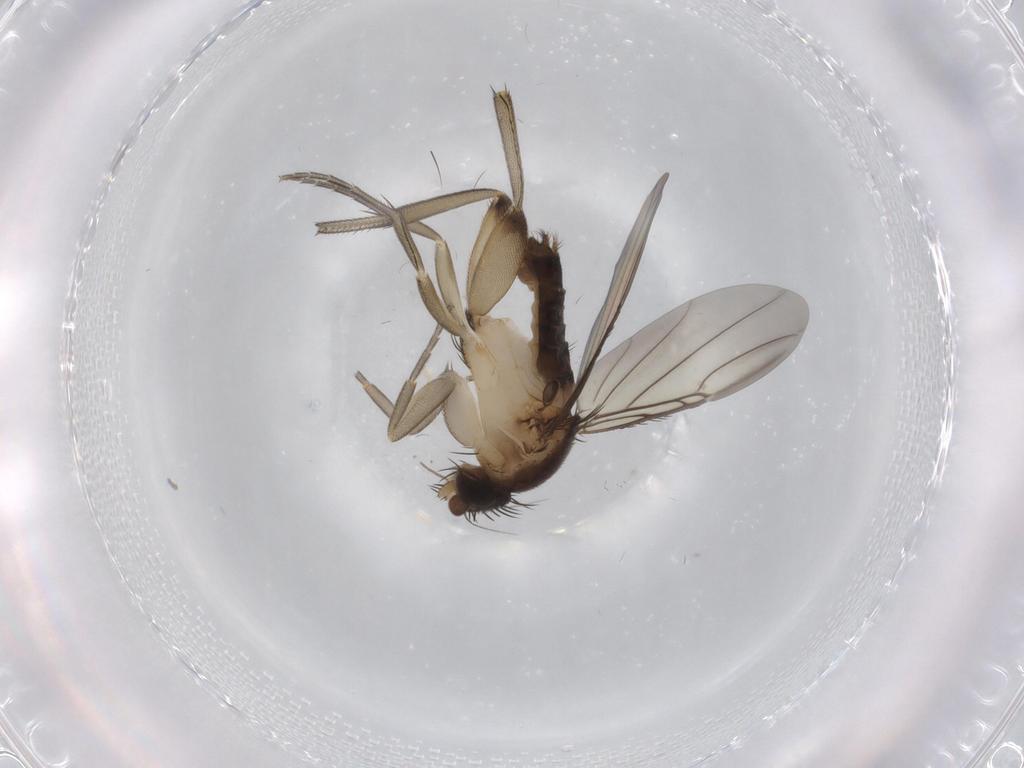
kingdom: Animalia
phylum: Arthropoda
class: Insecta
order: Diptera
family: Phoridae
